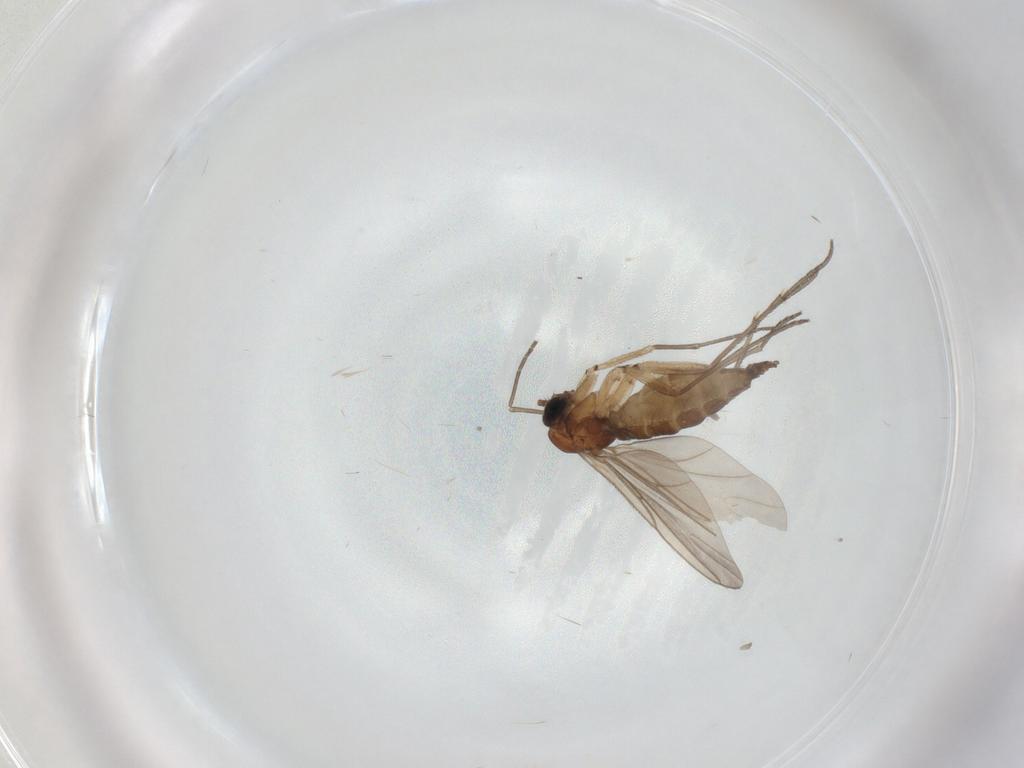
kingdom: Animalia
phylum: Arthropoda
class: Insecta
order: Diptera
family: Sciaridae
